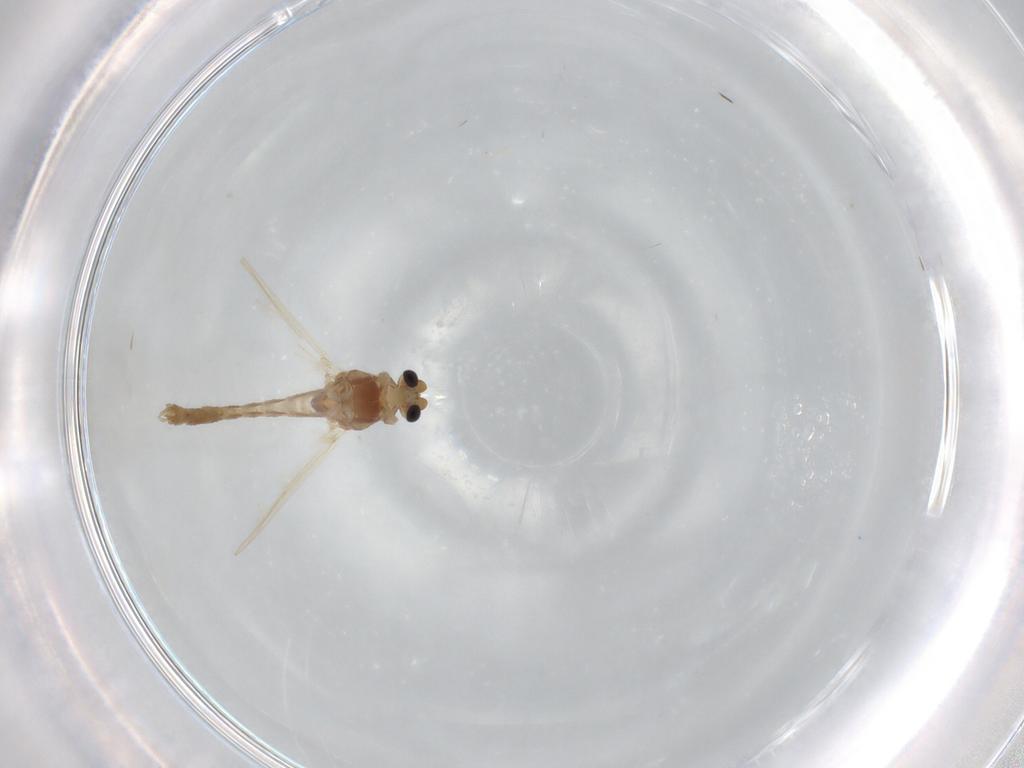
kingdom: Animalia
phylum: Arthropoda
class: Insecta
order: Diptera
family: Chironomidae
